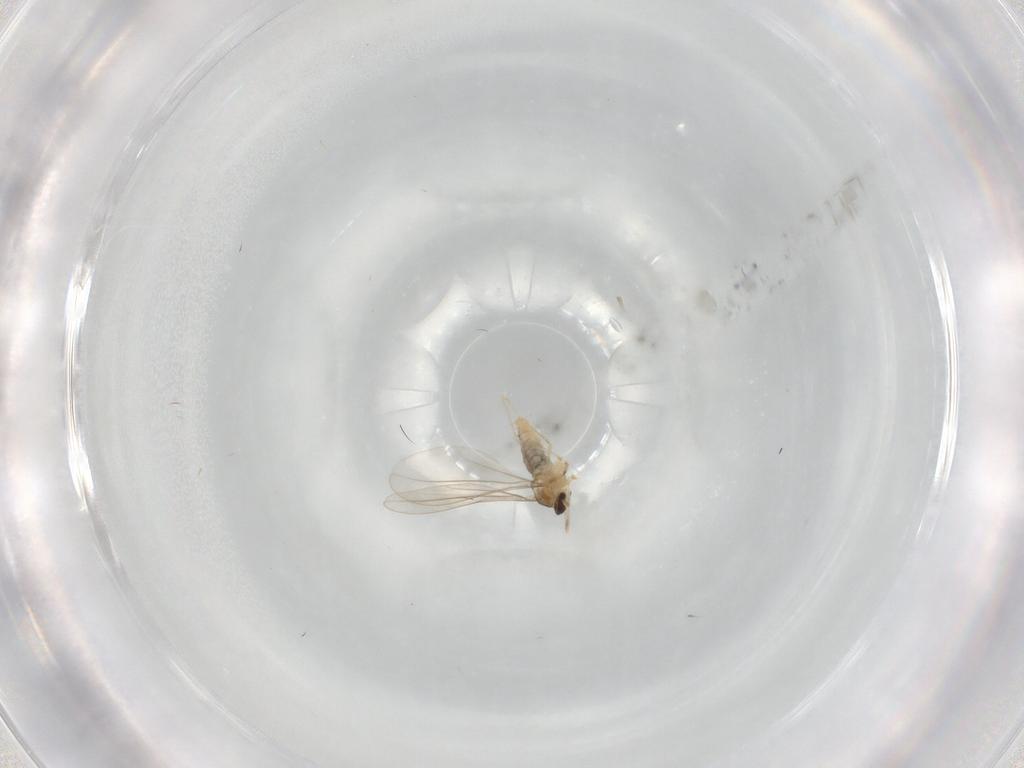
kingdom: Animalia
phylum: Arthropoda
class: Insecta
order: Diptera
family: Cecidomyiidae
